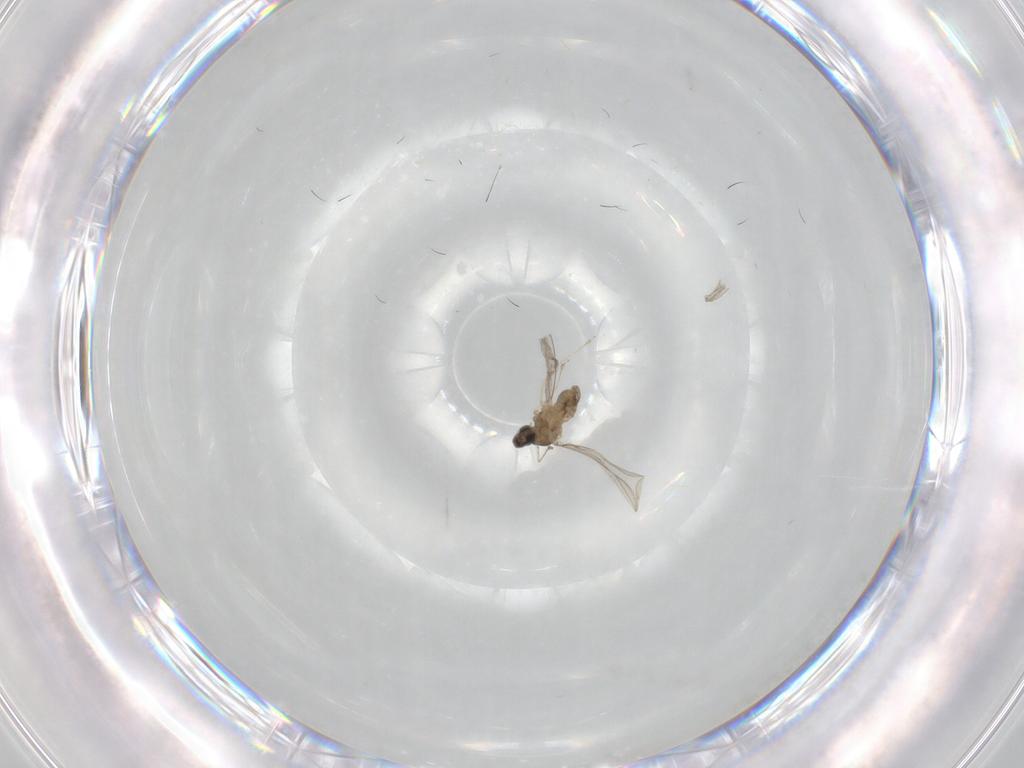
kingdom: Animalia
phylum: Arthropoda
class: Insecta
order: Diptera
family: Cecidomyiidae
